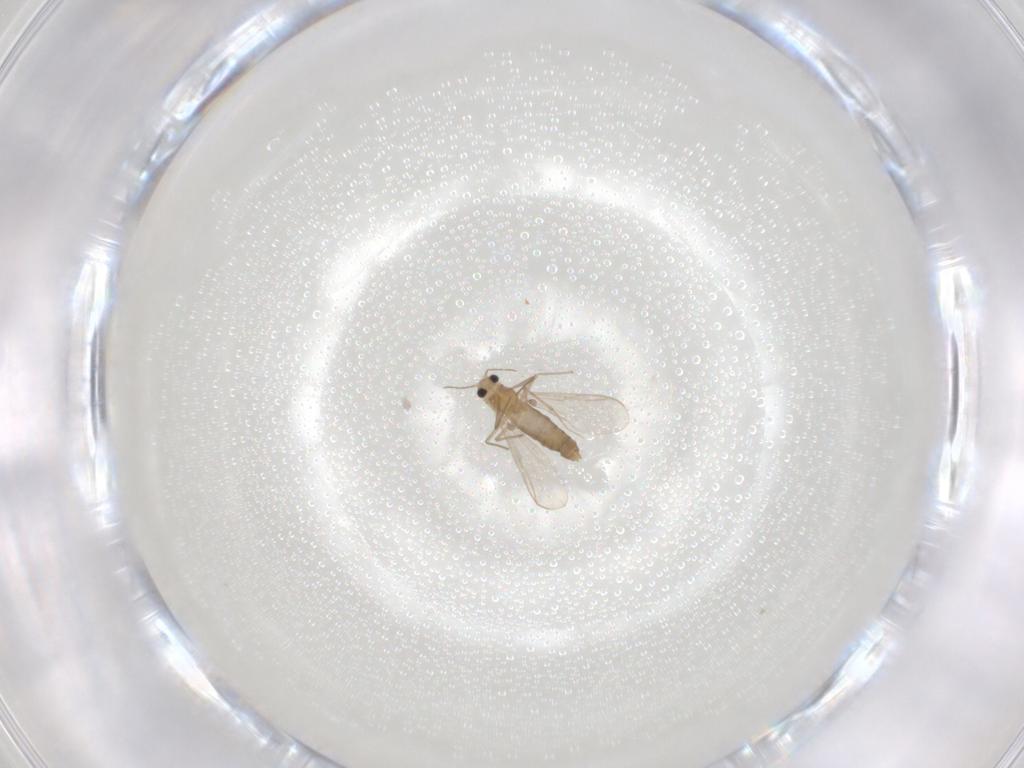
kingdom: Animalia
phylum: Arthropoda
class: Insecta
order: Diptera
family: Chironomidae
